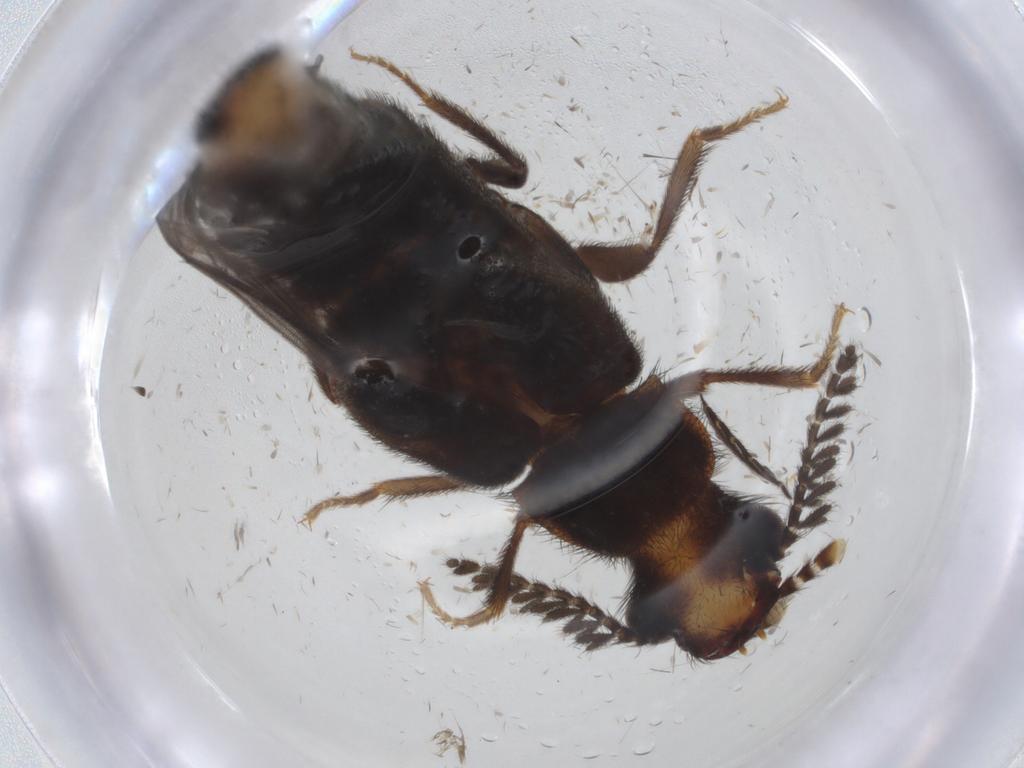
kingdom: Animalia
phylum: Arthropoda
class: Insecta
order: Coleoptera
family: Phengodidae
